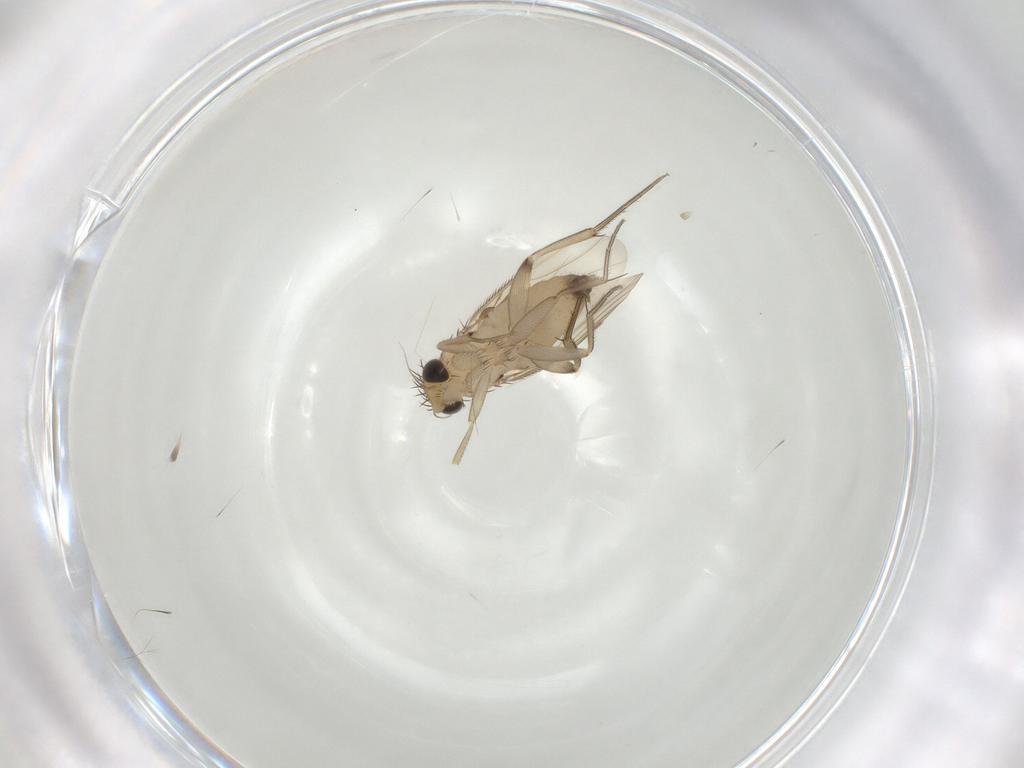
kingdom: Animalia
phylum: Arthropoda
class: Insecta
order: Diptera
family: Phoridae
